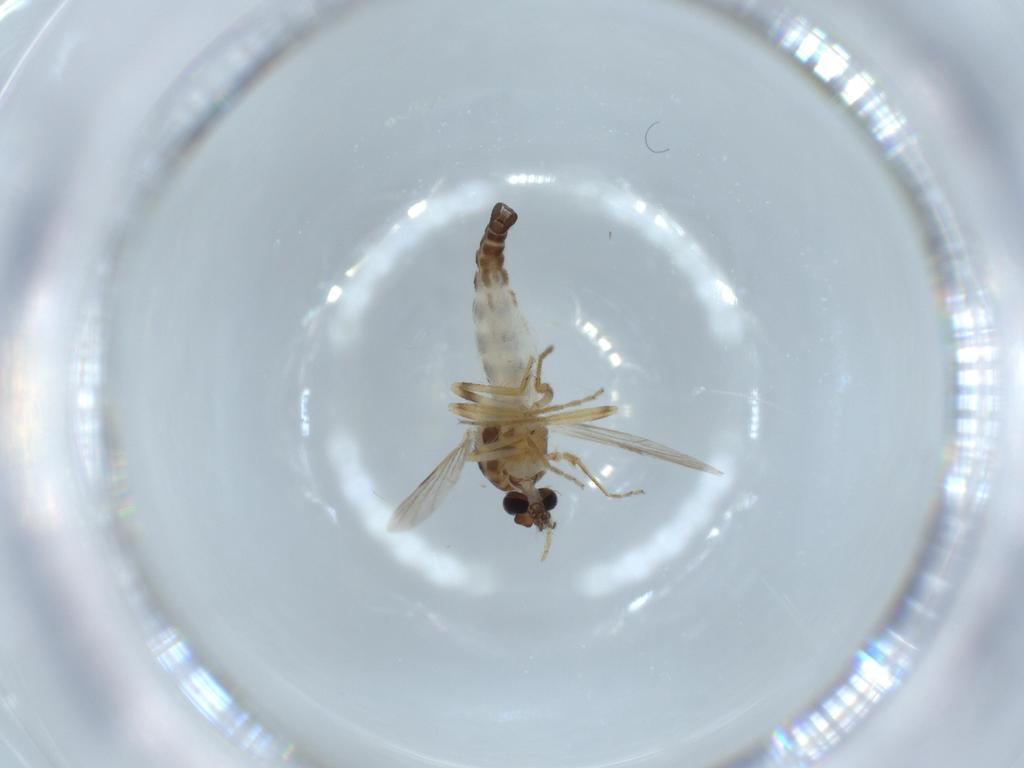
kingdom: Animalia
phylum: Arthropoda
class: Insecta
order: Diptera
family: Ceratopogonidae
